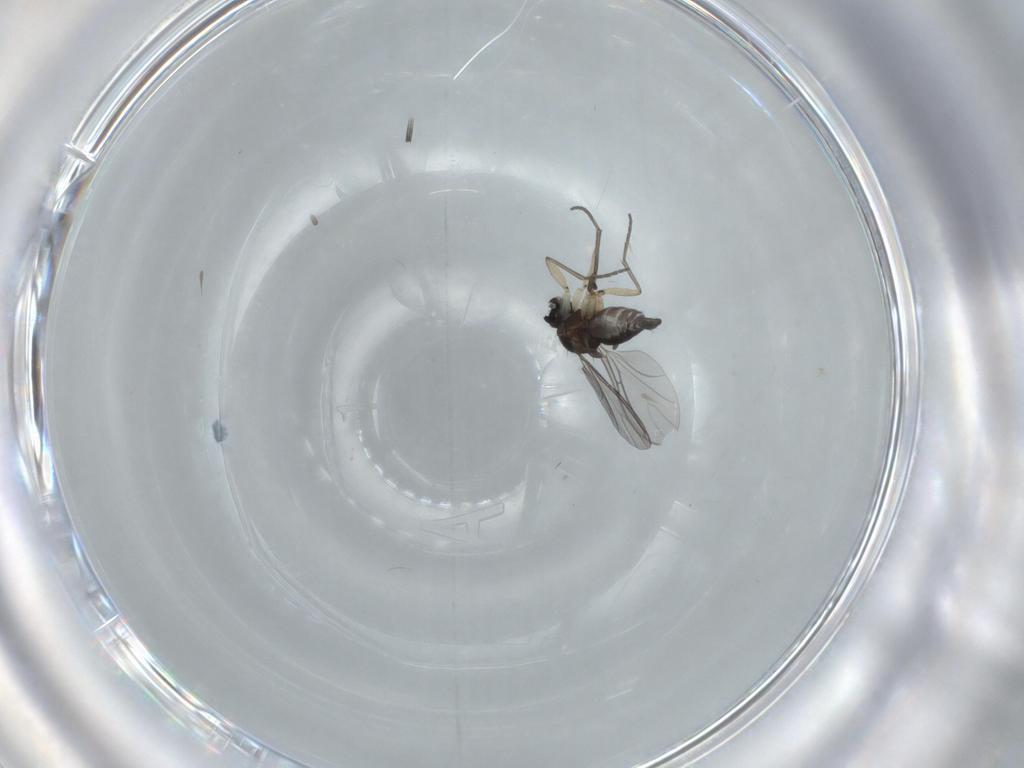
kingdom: Animalia
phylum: Arthropoda
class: Insecta
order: Diptera
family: Sciaridae
